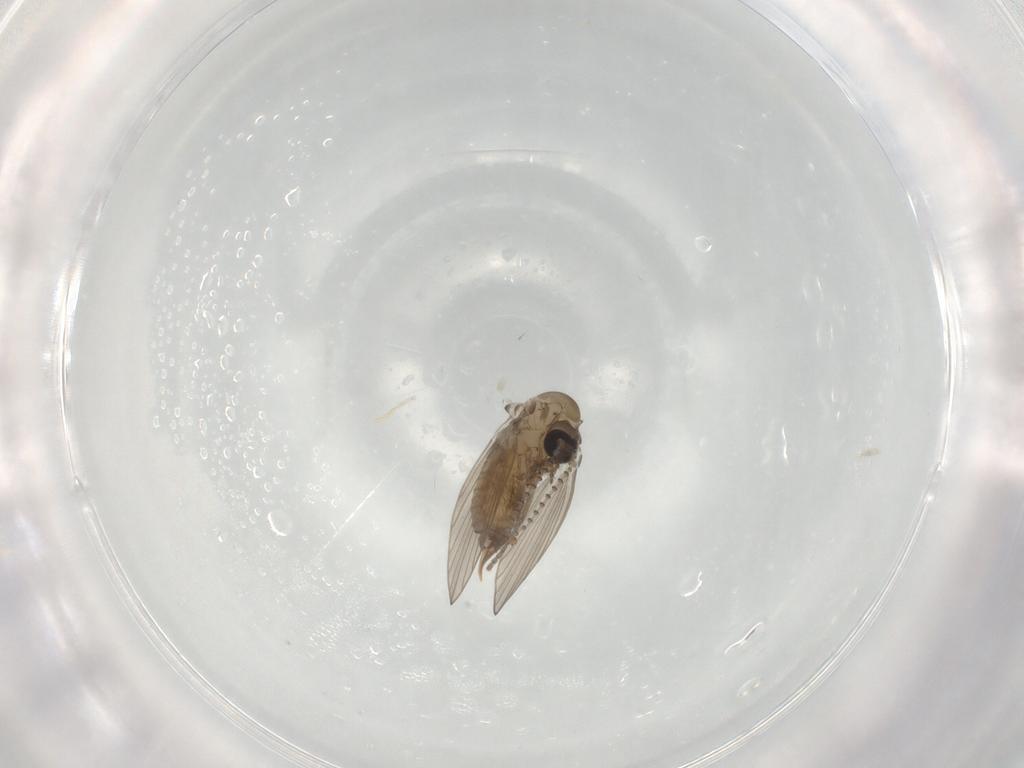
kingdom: Animalia
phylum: Arthropoda
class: Insecta
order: Diptera
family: Psychodidae
